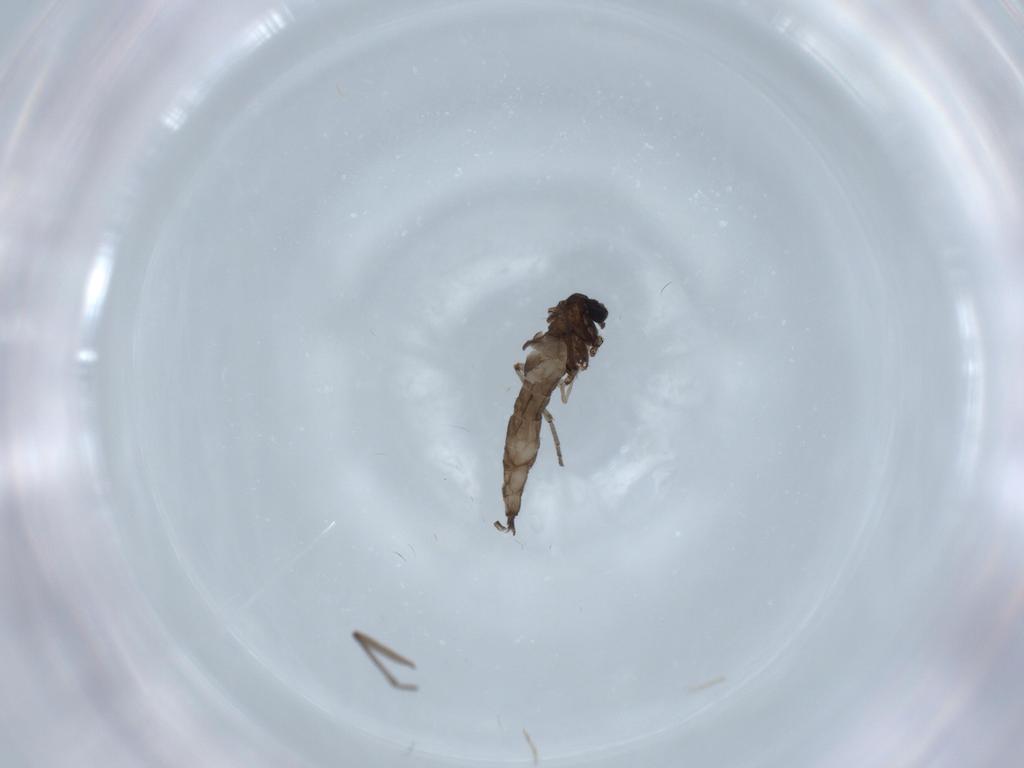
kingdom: Animalia
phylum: Arthropoda
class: Insecta
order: Diptera
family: Sciaridae
